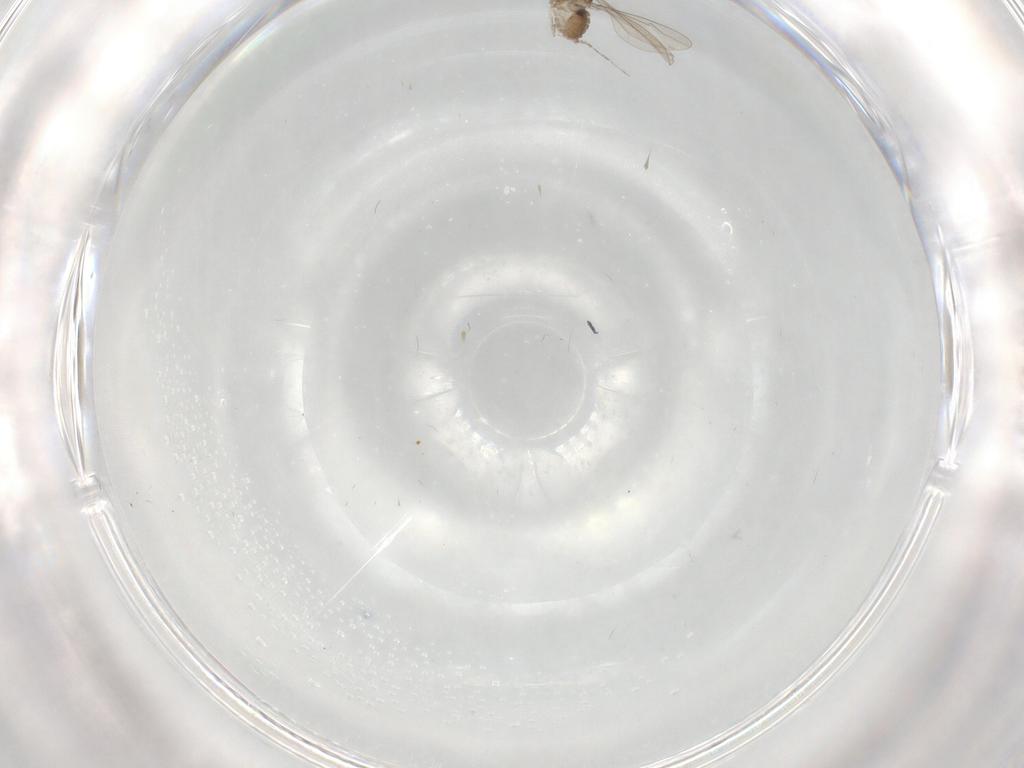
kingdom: Animalia
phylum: Arthropoda
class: Insecta
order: Diptera
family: Cecidomyiidae
